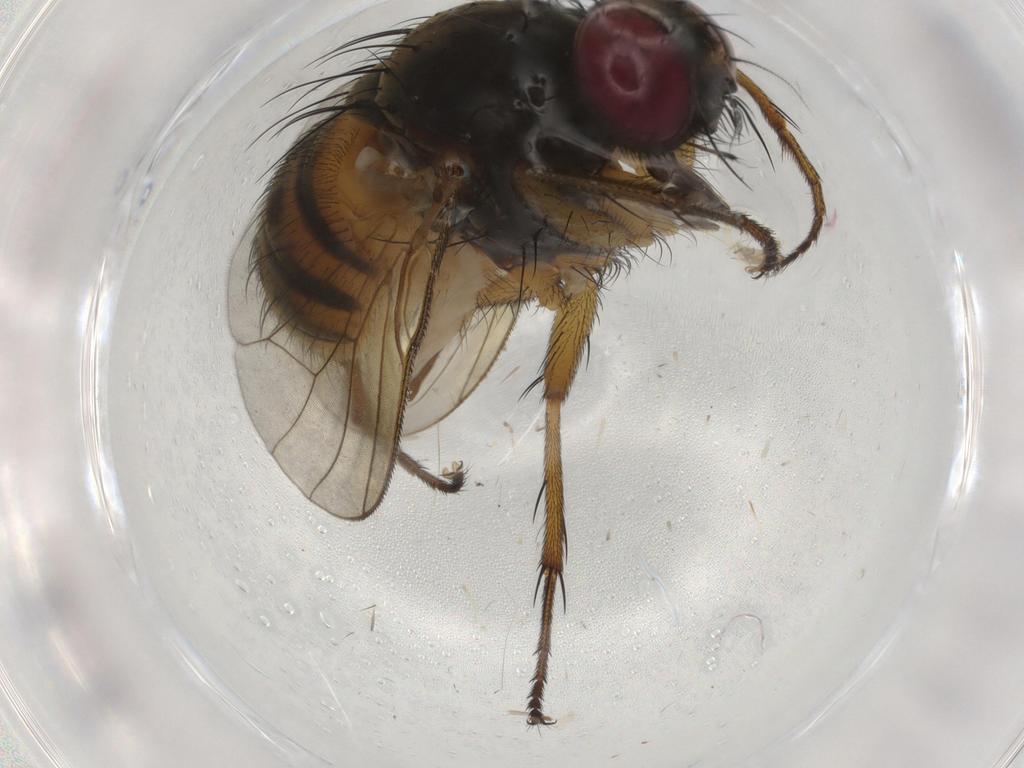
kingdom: Animalia
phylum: Arthropoda
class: Insecta
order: Diptera
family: Muscidae
